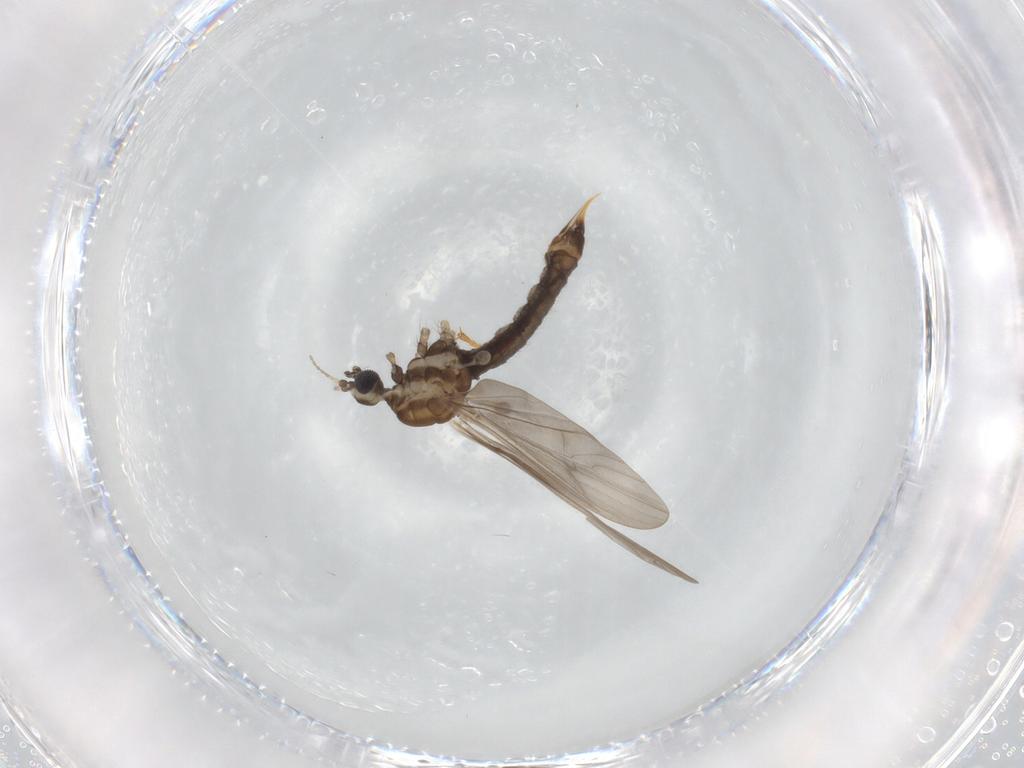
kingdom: Animalia
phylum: Arthropoda
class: Insecta
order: Diptera
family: Limoniidae
